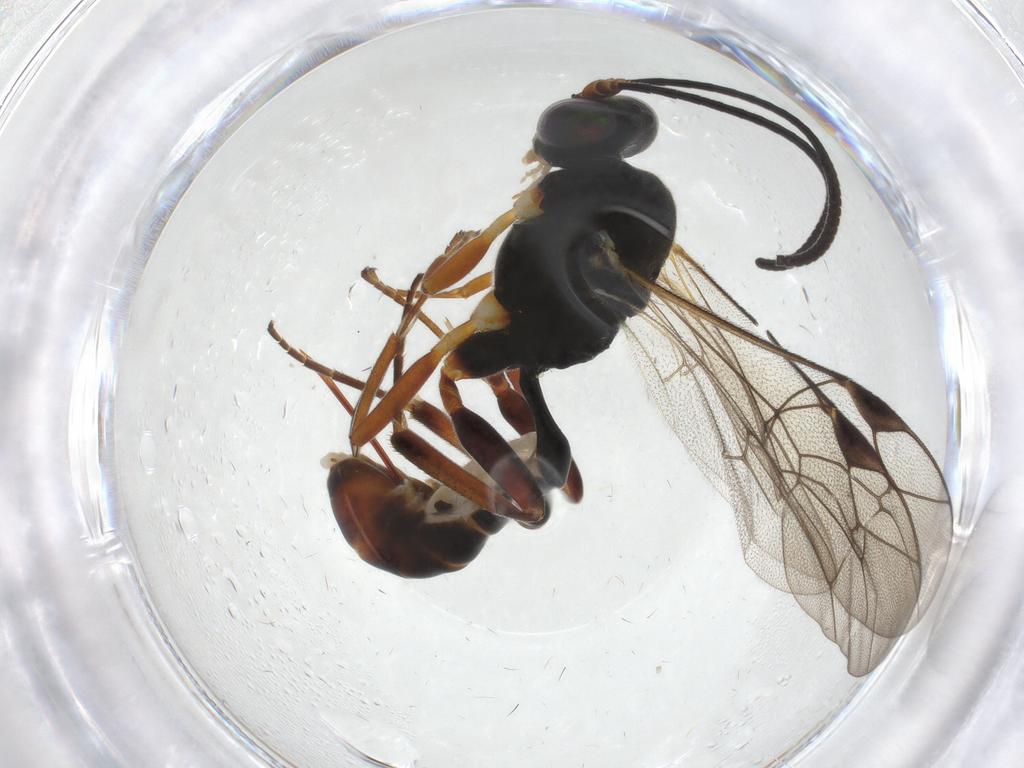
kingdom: Animalia
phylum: Arthropoda
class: Insecta
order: Hymenoptera
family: Ichneumonidae
